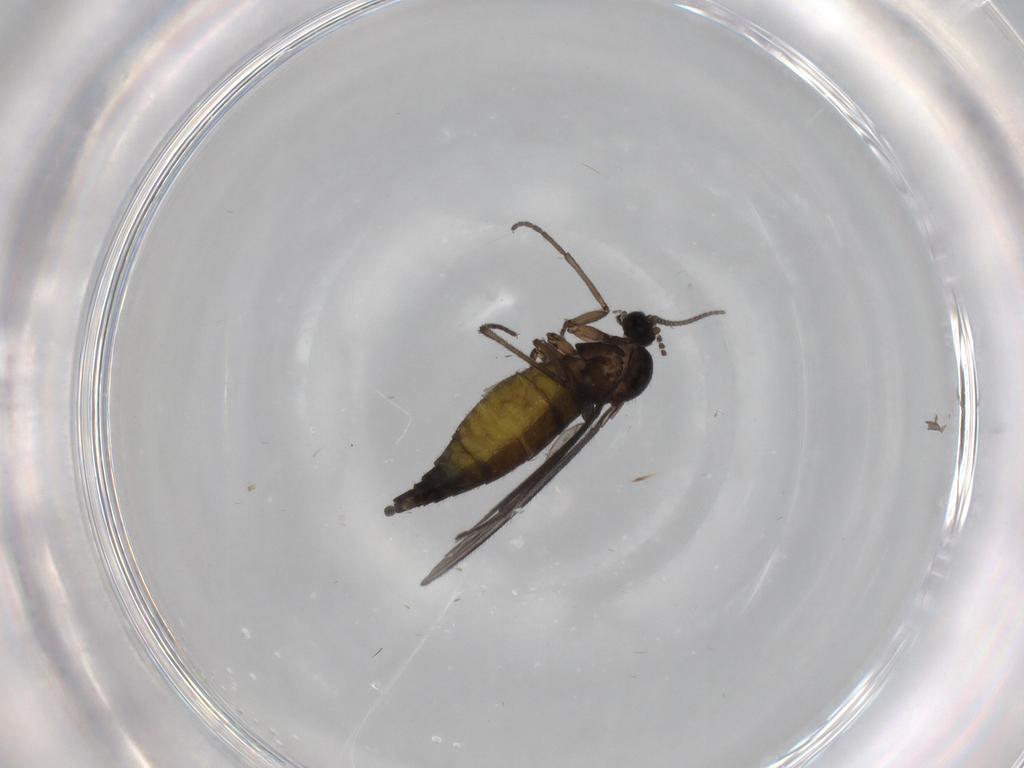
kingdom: Animalia
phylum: Arthropoda
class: Insecta
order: Diptera
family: Sciaridae
